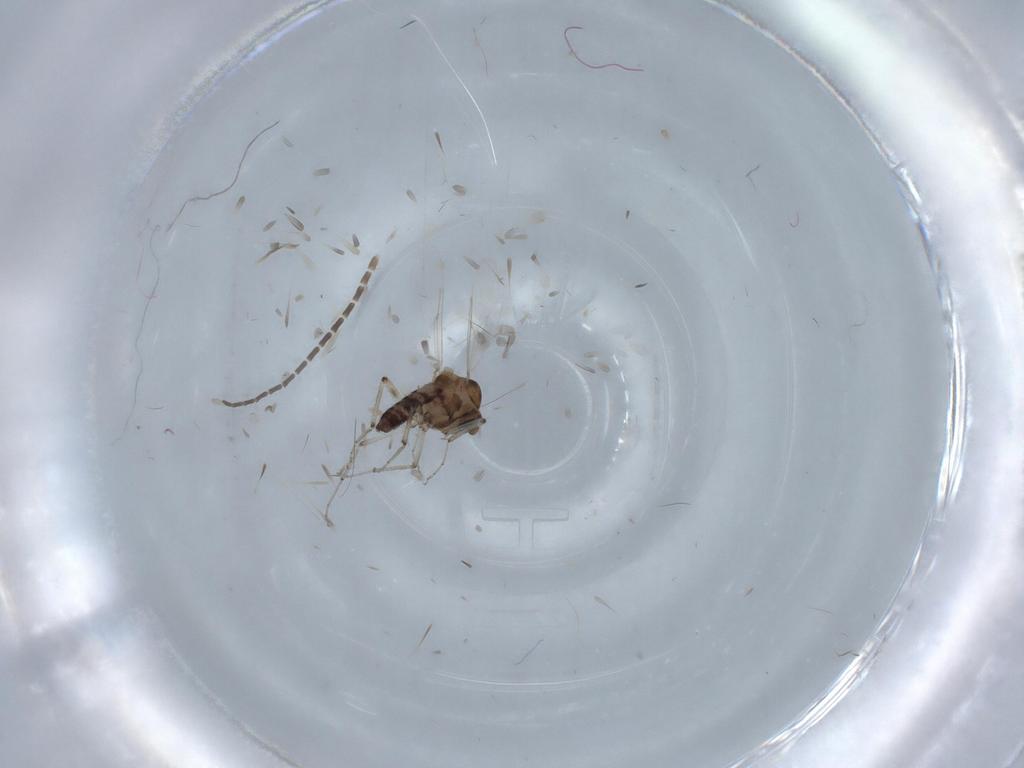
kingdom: Animalia
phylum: Arthropoda
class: Insecta
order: Diptera
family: Sciaridae
